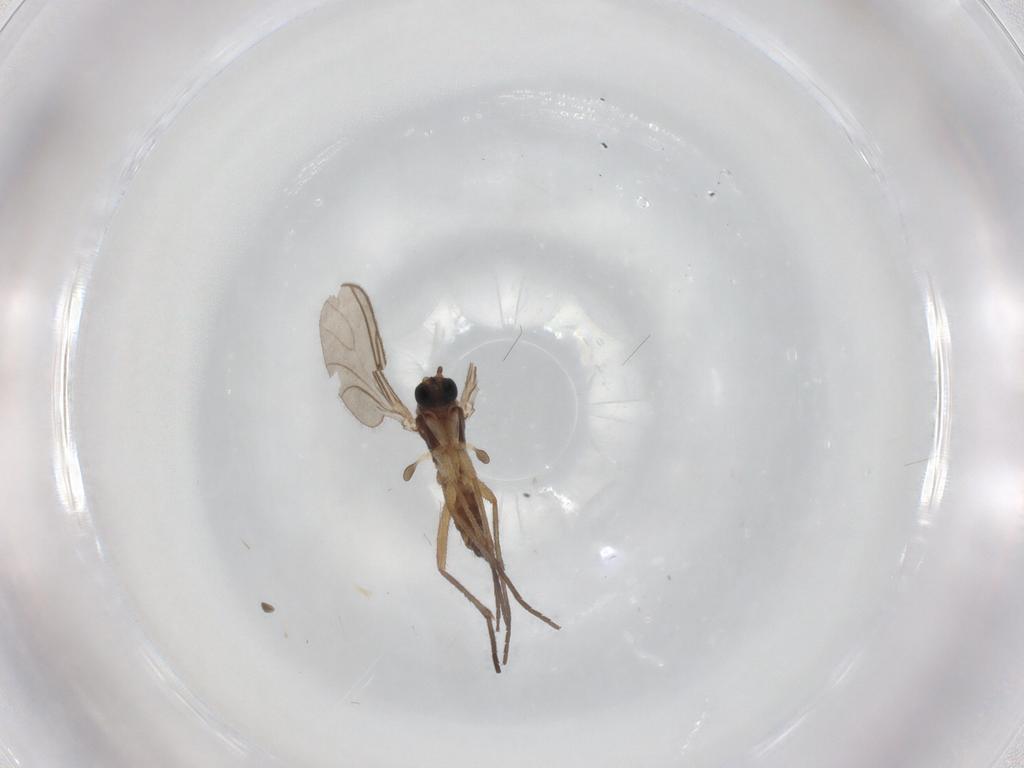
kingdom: Animalia
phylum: Arthropoda
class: Insecta
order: Diptera
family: Sciaridae
